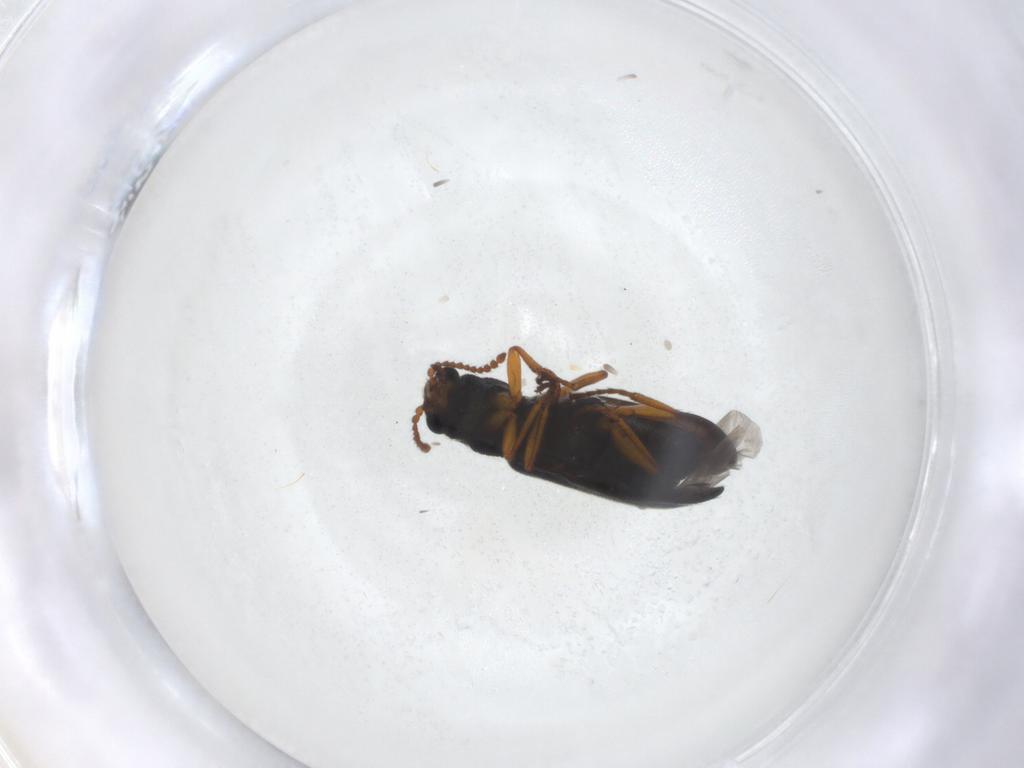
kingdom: Animalia
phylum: Arthropoda
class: Insecta
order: Coleoptera
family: Melyridae
